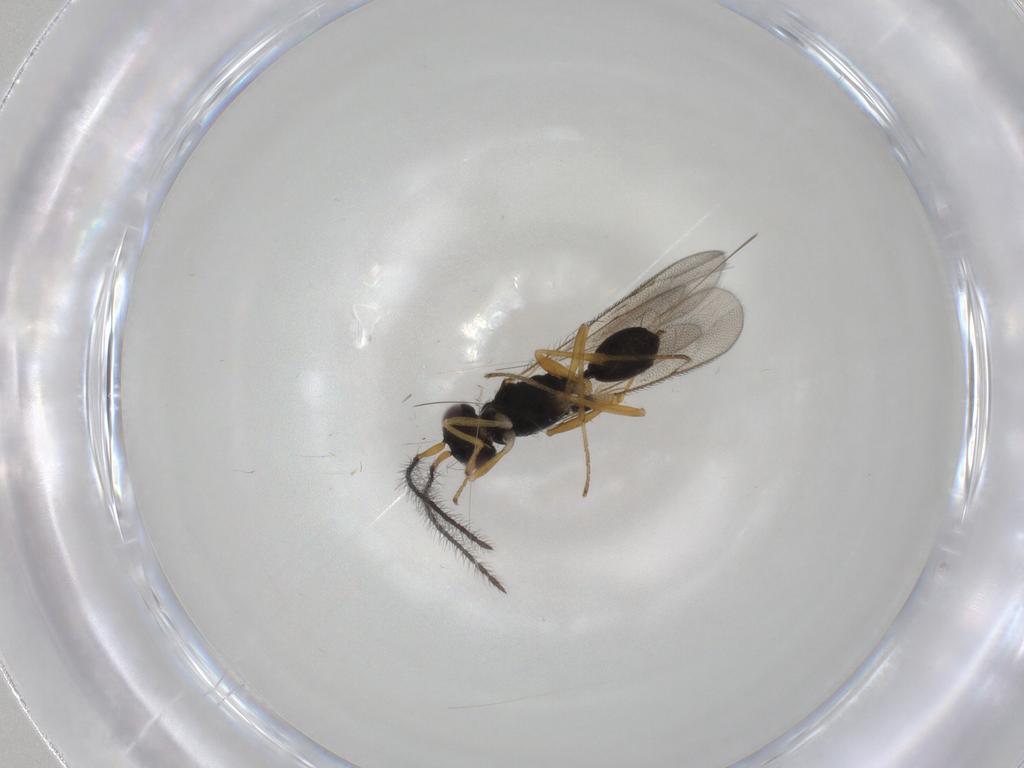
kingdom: Animalia
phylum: Arthropoda
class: Insecta
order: Hymenoptera
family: Diparidae
